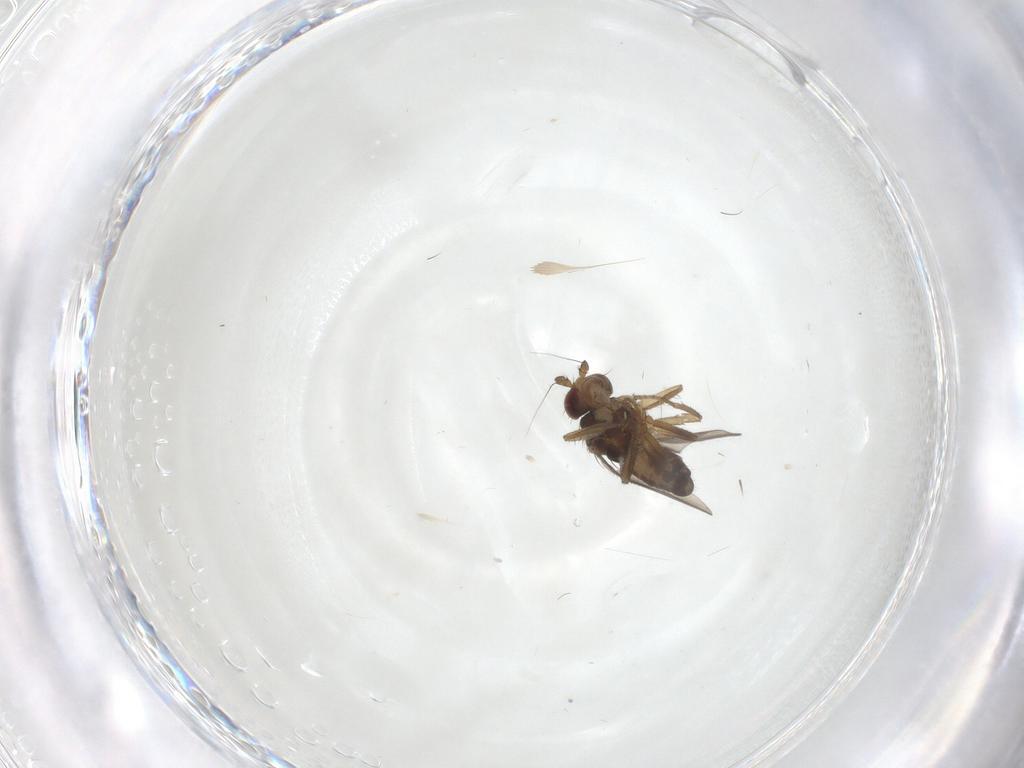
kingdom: Animalia
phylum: Arthropoda
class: Insecta
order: Diptera
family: Sphaeroceridae
